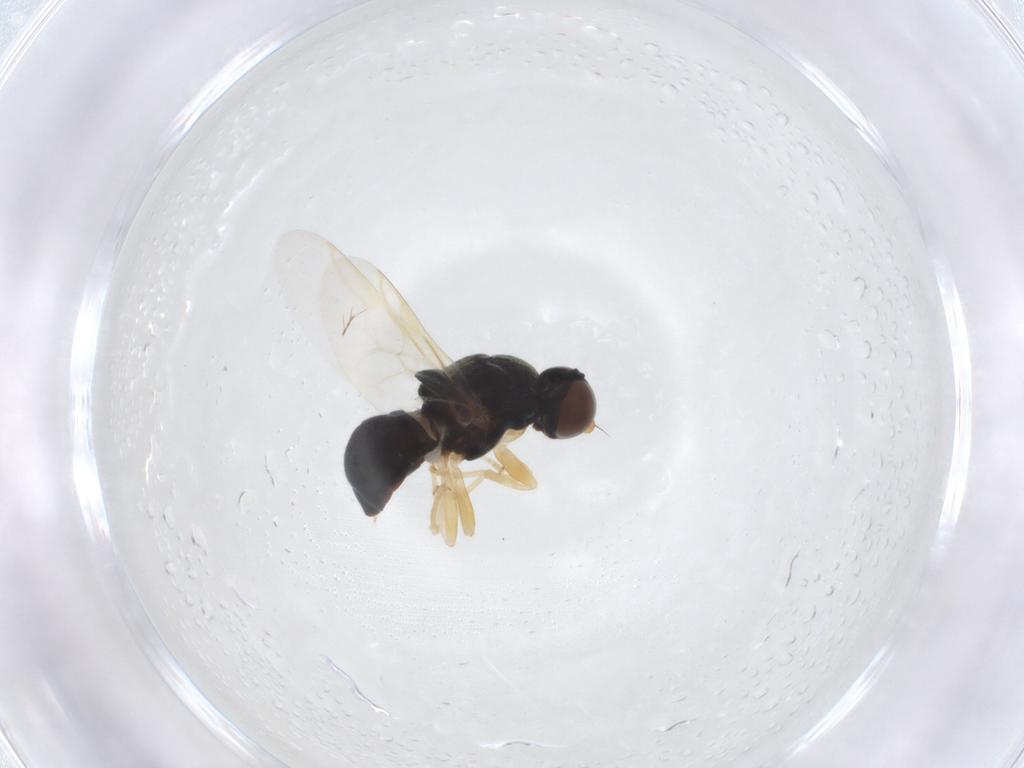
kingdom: Animalia
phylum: Arthropoda
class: Insecta
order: Diptera
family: Stratiomyidae
